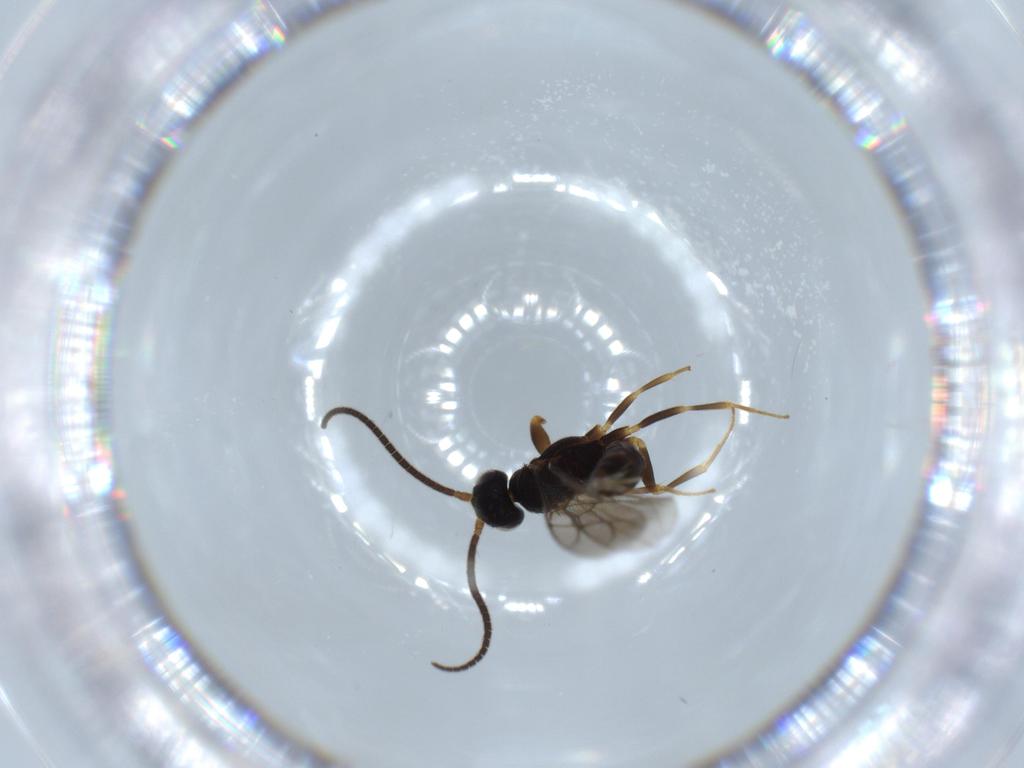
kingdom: Animalia
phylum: Arthropoda
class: Insecta
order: Hymenoptera
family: Sclerogibbidae
